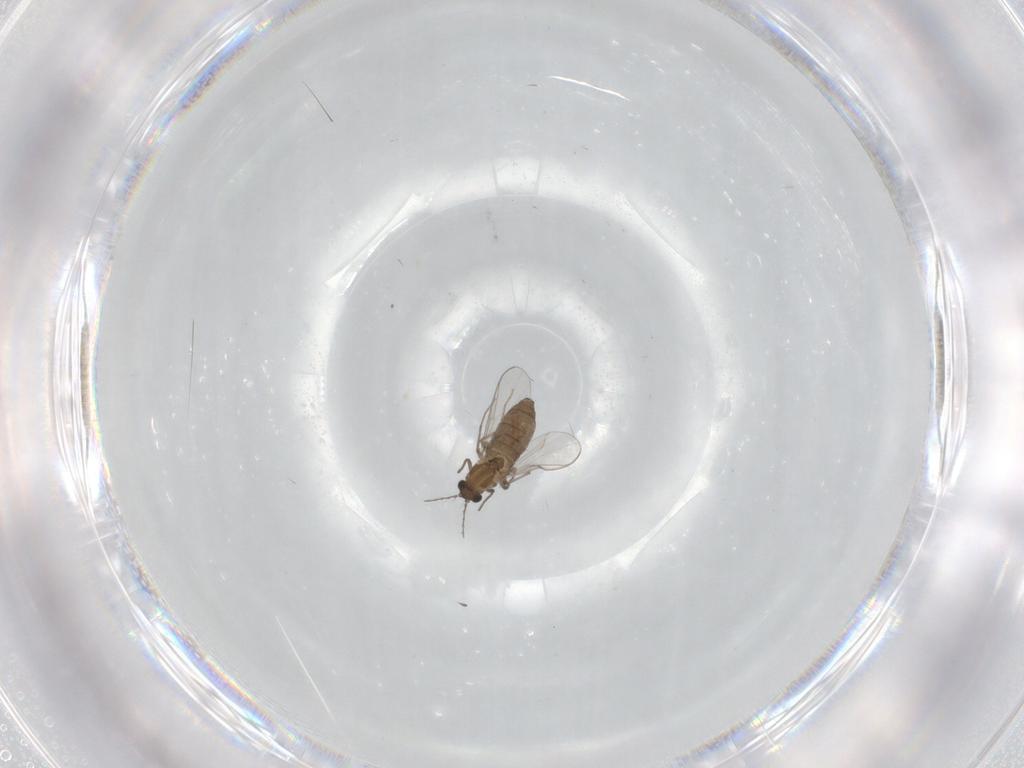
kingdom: Animalia
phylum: Arthropoda
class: Insecta
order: Diptera
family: Chironomidae
